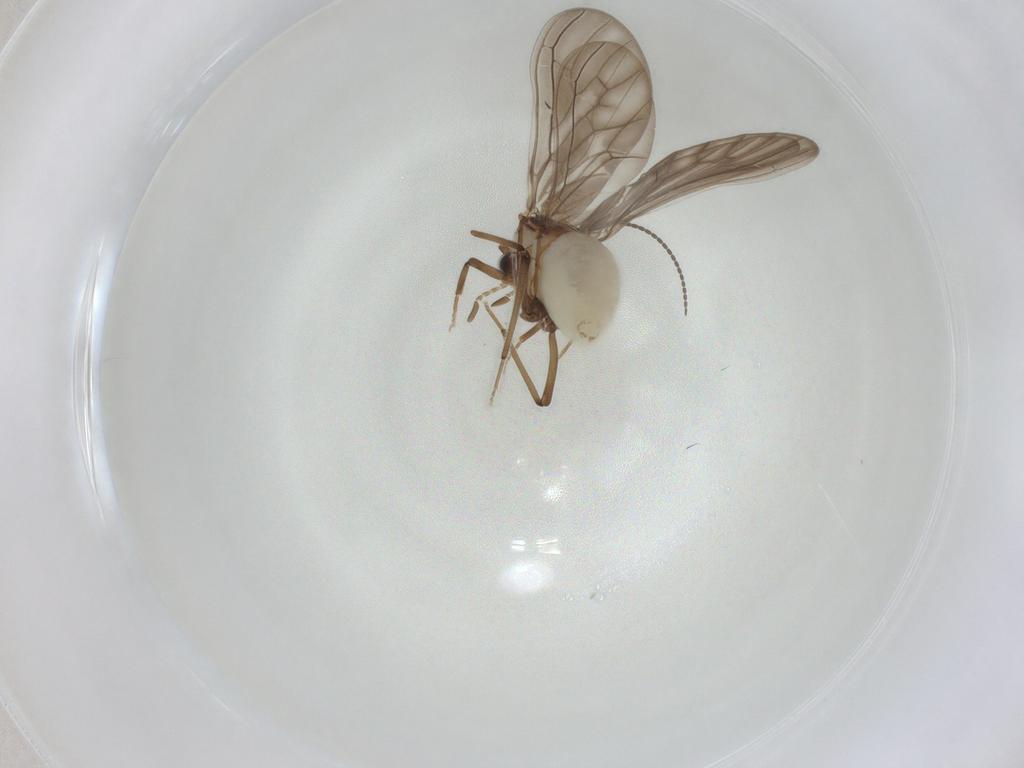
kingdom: Animalia
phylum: Arthropoda
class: Insecta
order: Neuroptera
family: Coniopterygidae
